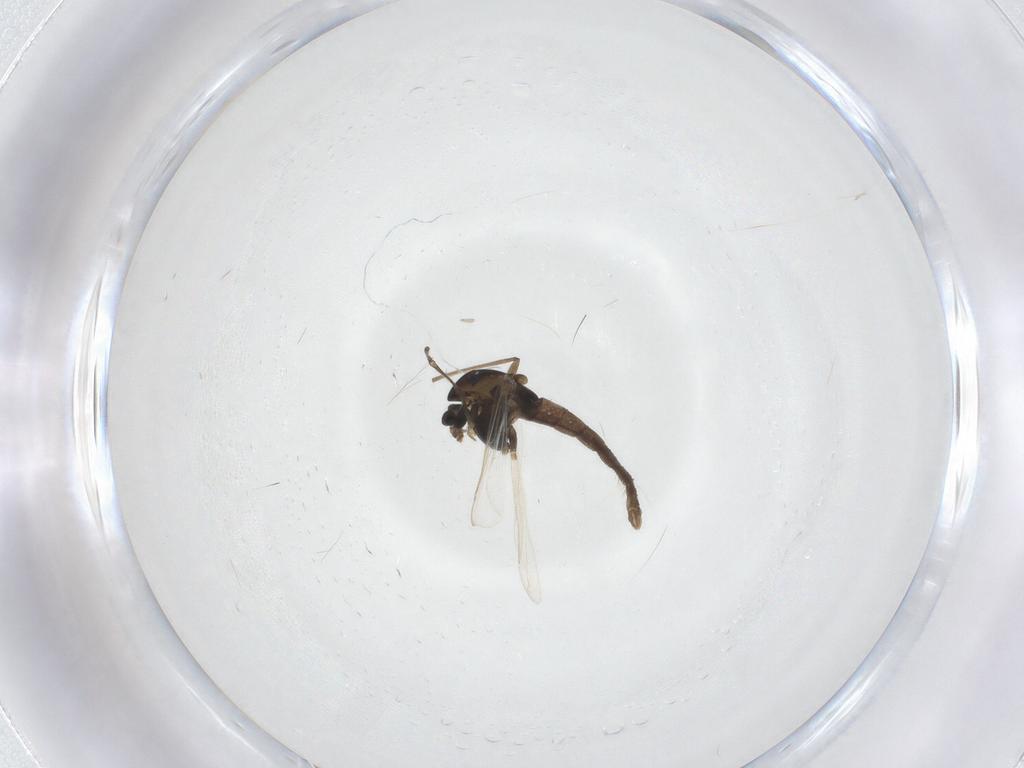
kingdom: Animalia
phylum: Arthropoda
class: Insecta
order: Diptera
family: Chironomidae
